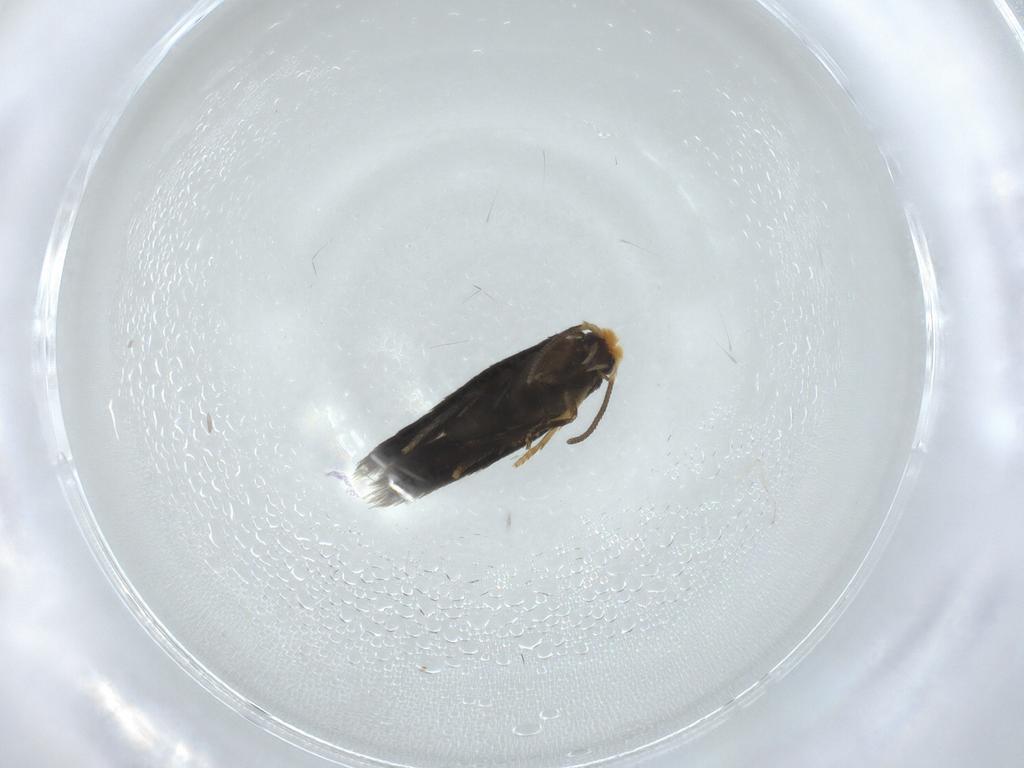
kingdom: Animalia
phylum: Arthropoda
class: Insecta
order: Lepidoptera
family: Nepticulidae
